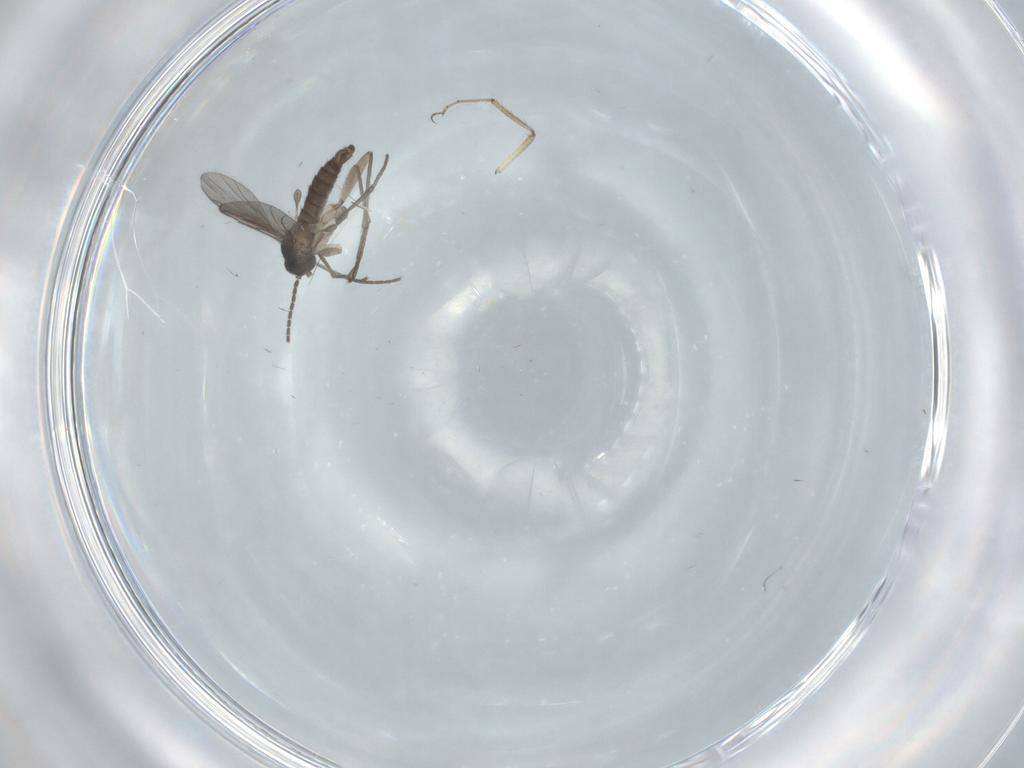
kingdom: Animalia
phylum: Arthropoda
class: Insecta
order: Diptera
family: Sciaridae
